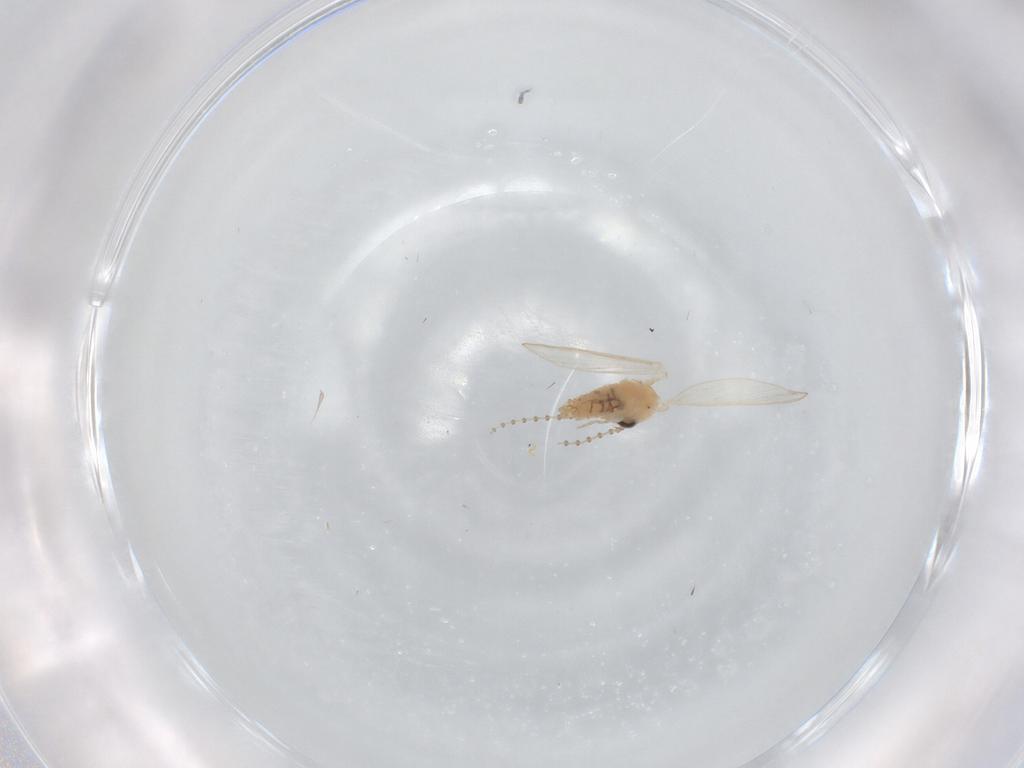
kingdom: Animalia
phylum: Arthropoda
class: Insecta
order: Diptera
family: Psychodidae
